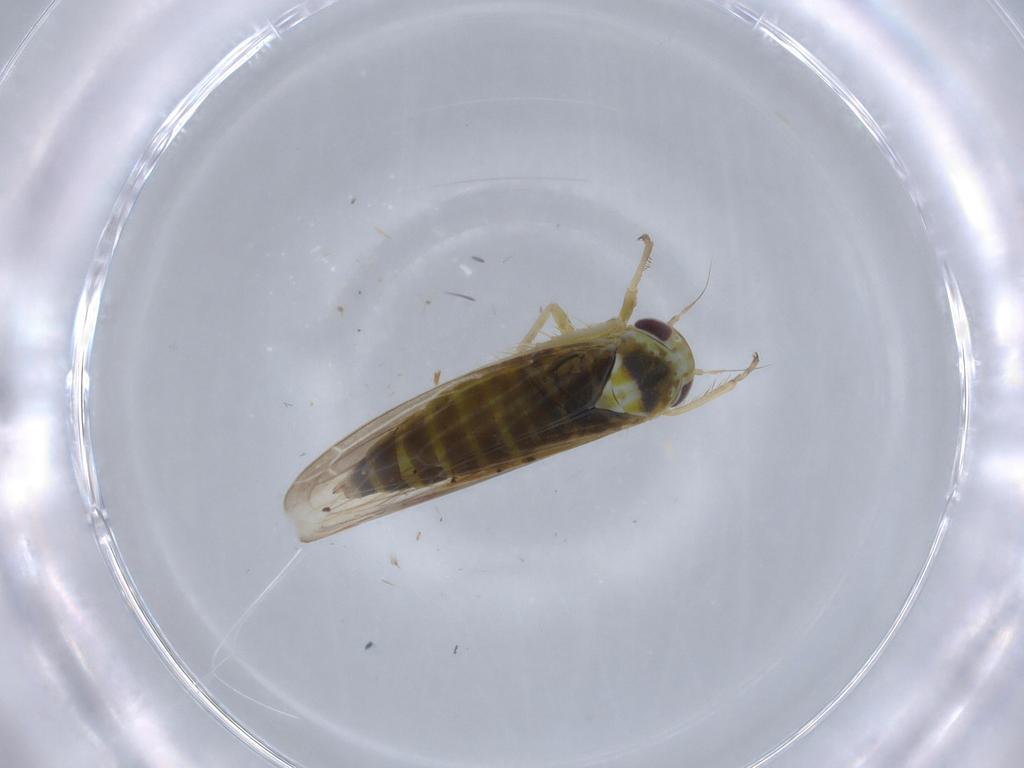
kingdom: Animalia
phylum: Arthropoda
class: Insecta
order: Hemiptera
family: Cicadellidae
